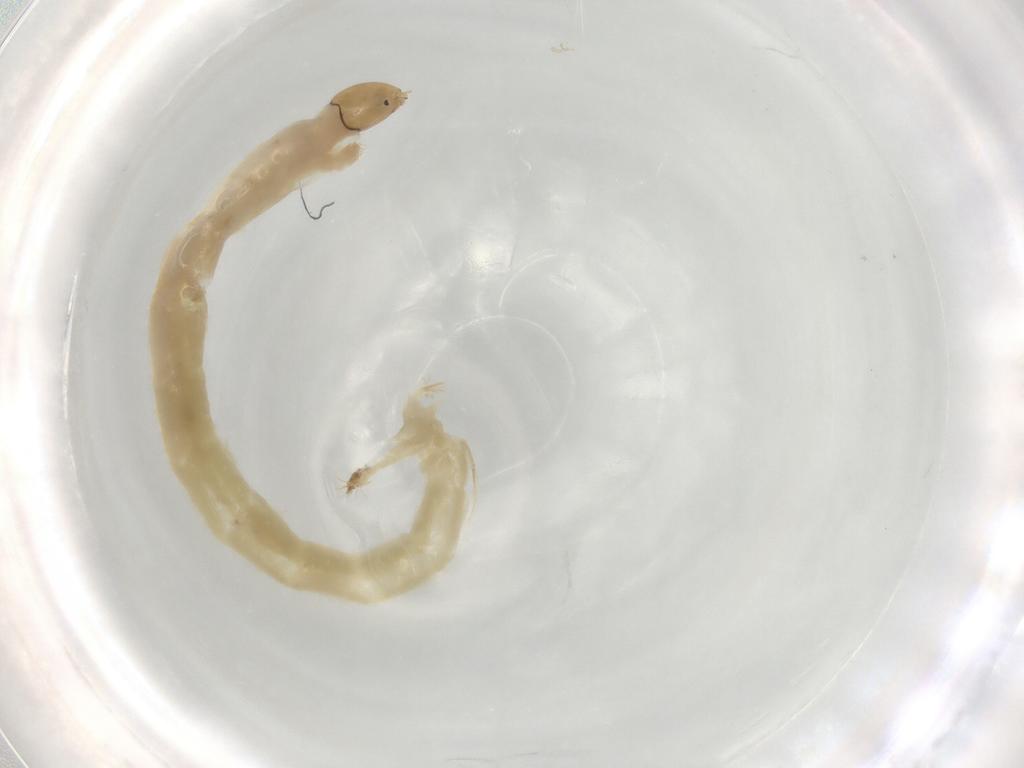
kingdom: Animalia
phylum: Arthropoda
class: Insecta
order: Diptera
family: Chironomidae
